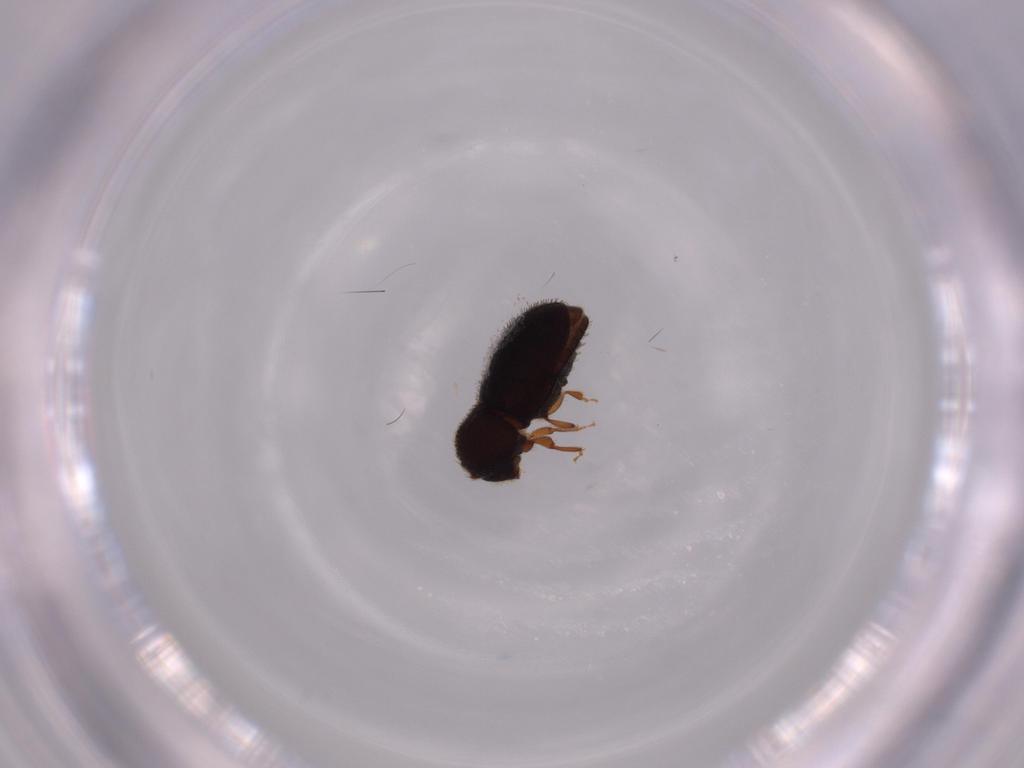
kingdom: Animalia
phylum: Arthropoda
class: Insecta
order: Coleoptera
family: Curculionidae
